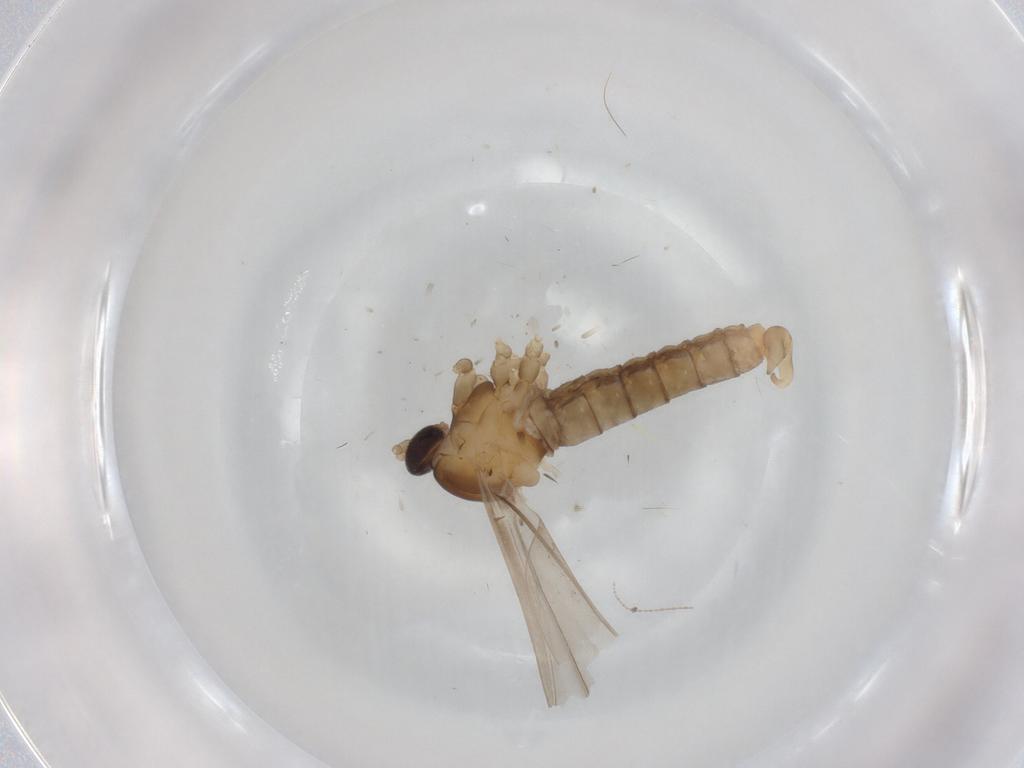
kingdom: Animalia
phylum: Arthropoda
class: Insecta
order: Diptera
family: Cecidomyiidae
